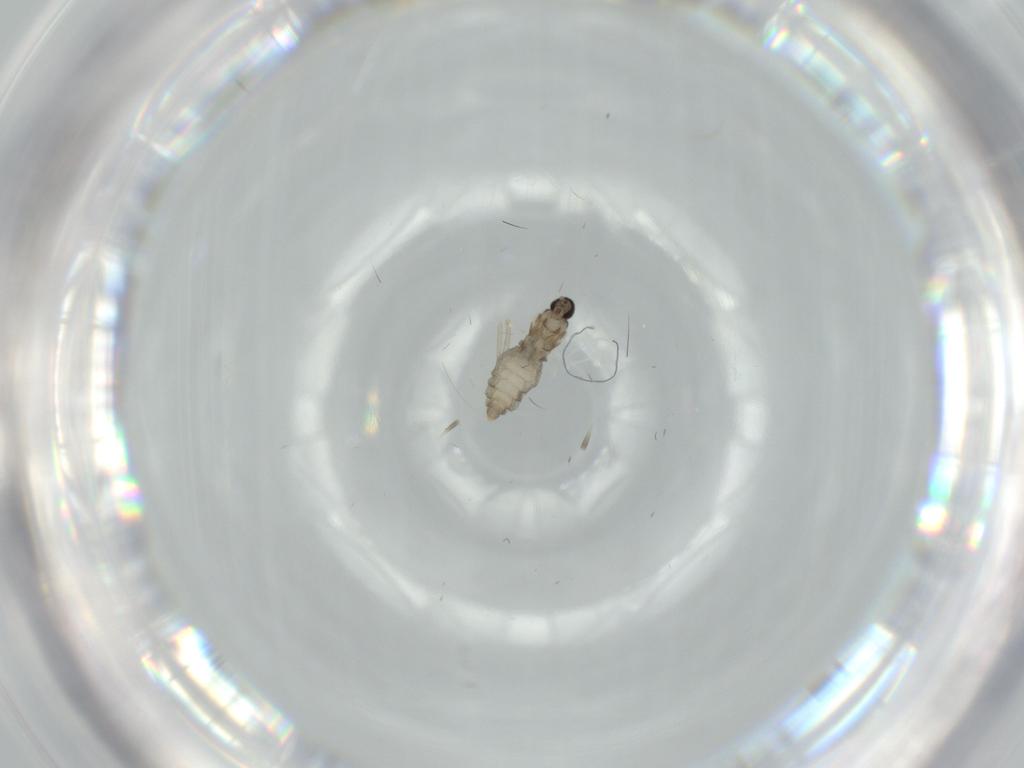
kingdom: Animalia
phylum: Arthropoda
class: Insecta
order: Diptera
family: Cecidomyiidae
